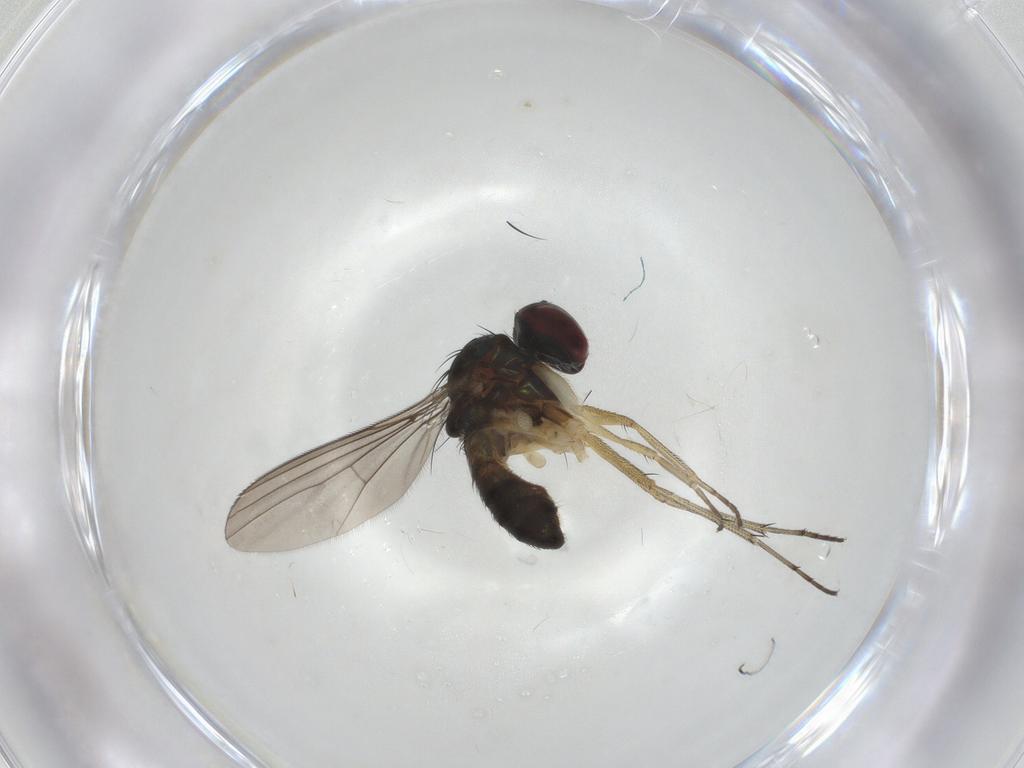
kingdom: Animalia
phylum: Arthropoda
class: Insecta
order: Diptera
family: Dolichopodidae
